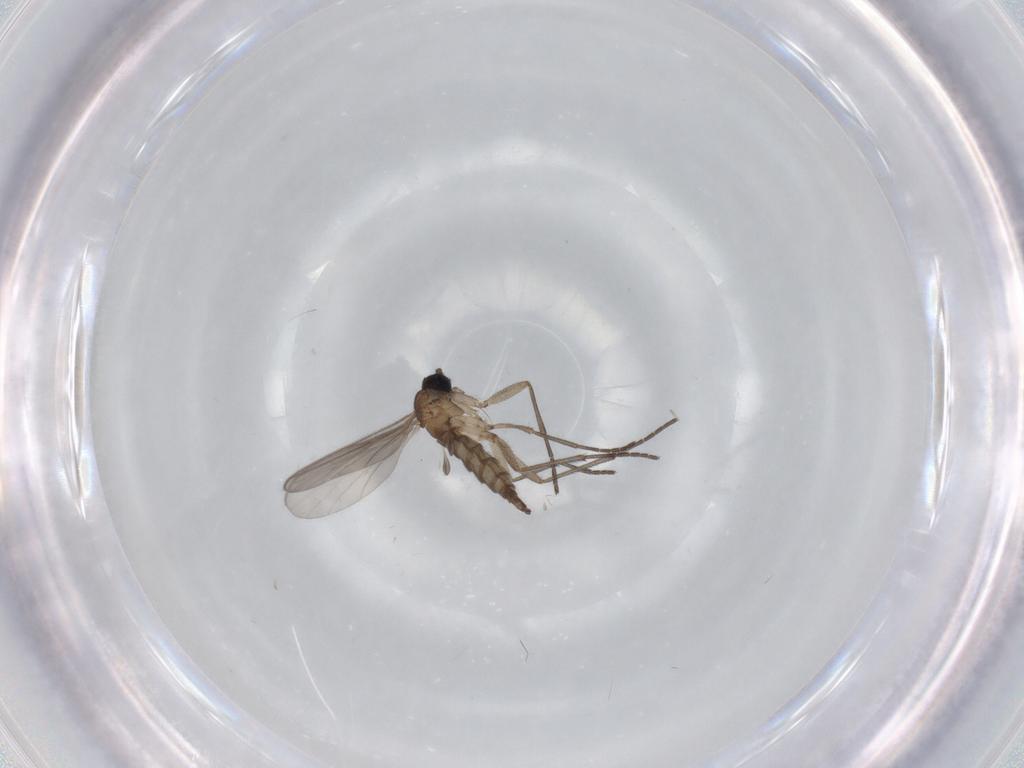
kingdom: Animalia
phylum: Arthropoda
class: Insecta
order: Diptera
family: Sciaridae
